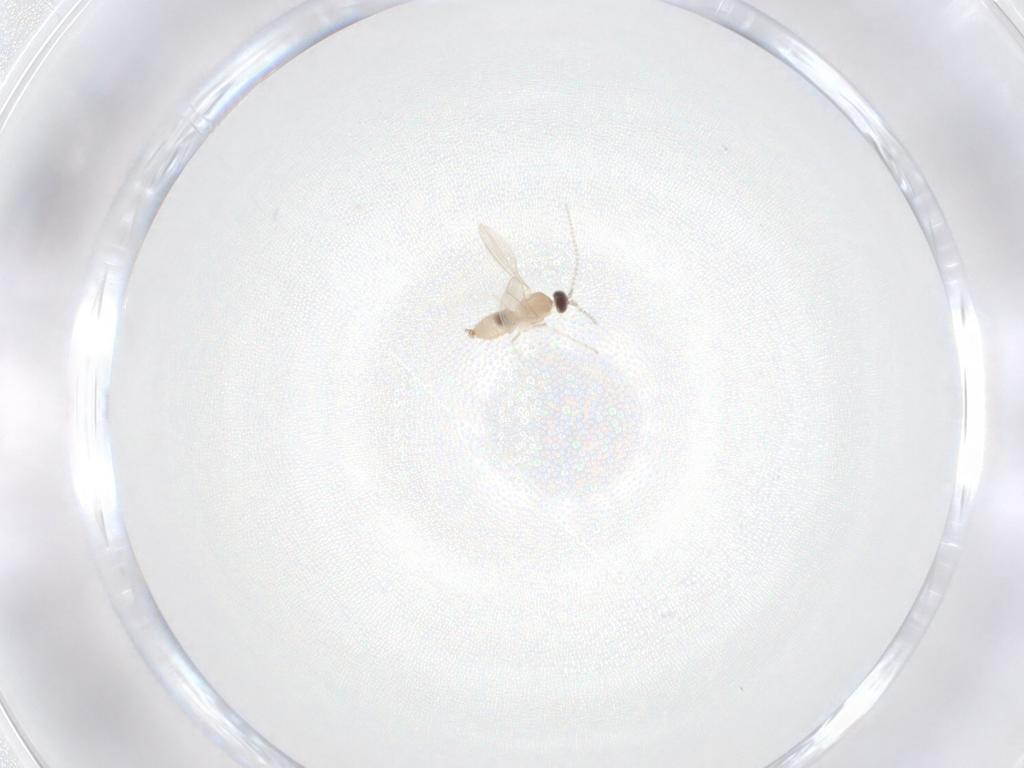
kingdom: Animalia
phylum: Arthropoda
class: Insecta
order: Diptera
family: Cecidomyiidae
